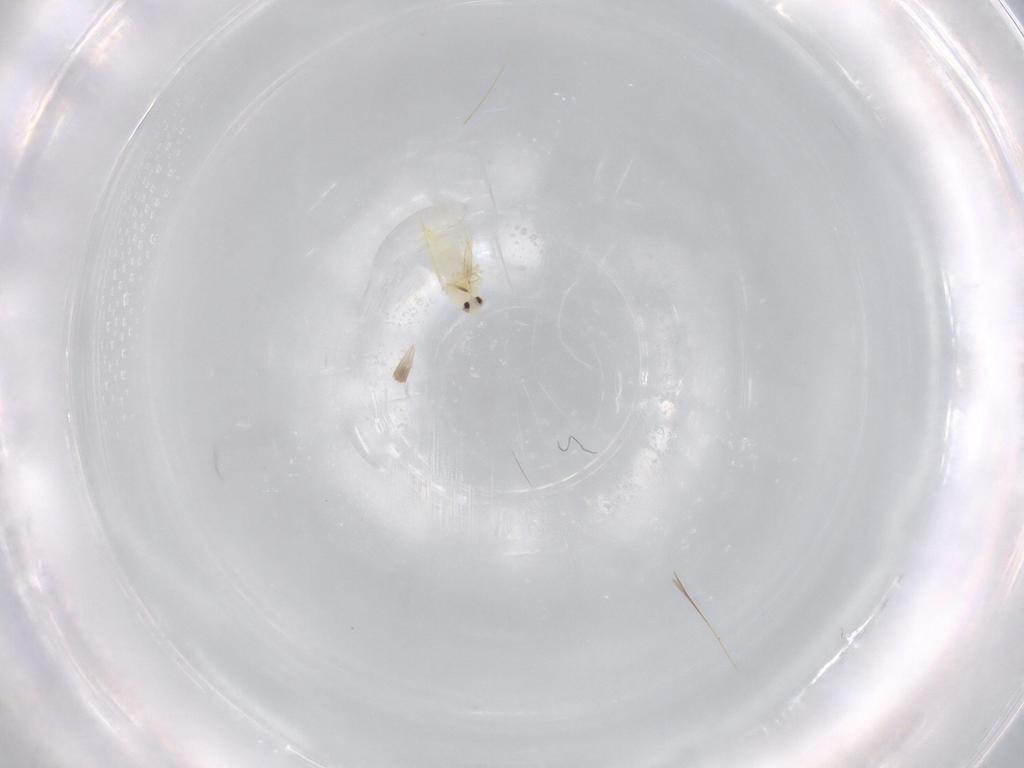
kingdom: Animalia
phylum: Arthropoda
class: Insecta
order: Hemiptera
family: Aleyrodidae
